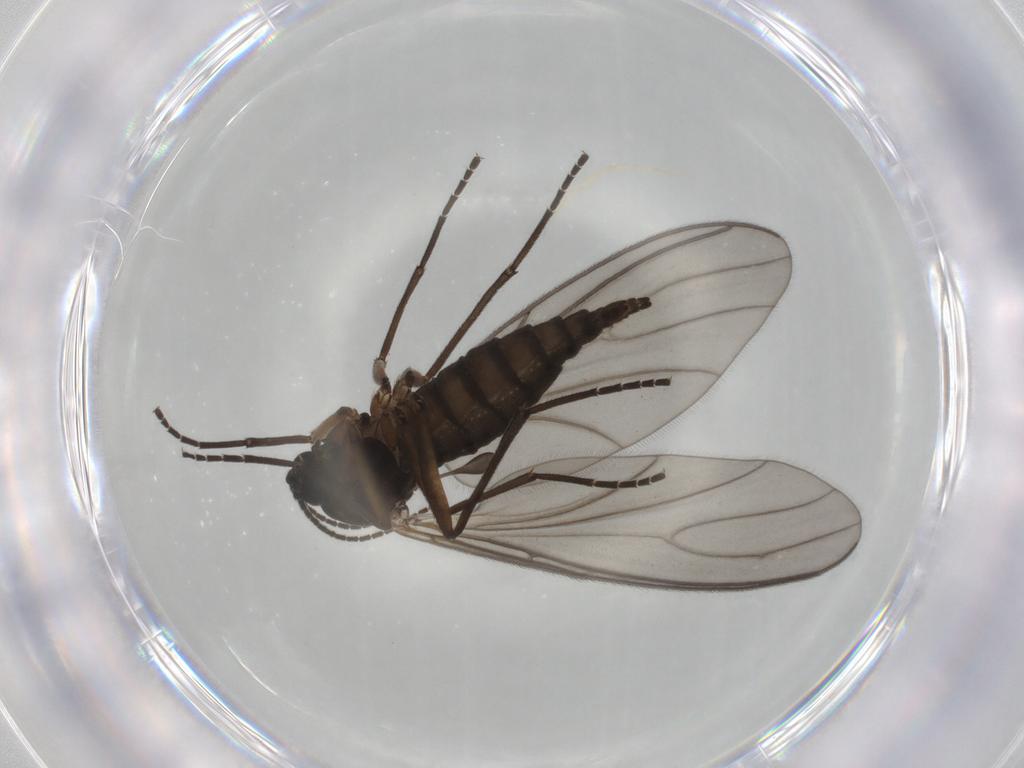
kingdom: Animalia
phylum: Arthropoda
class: Insecta
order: Diptera
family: Sciaridae
